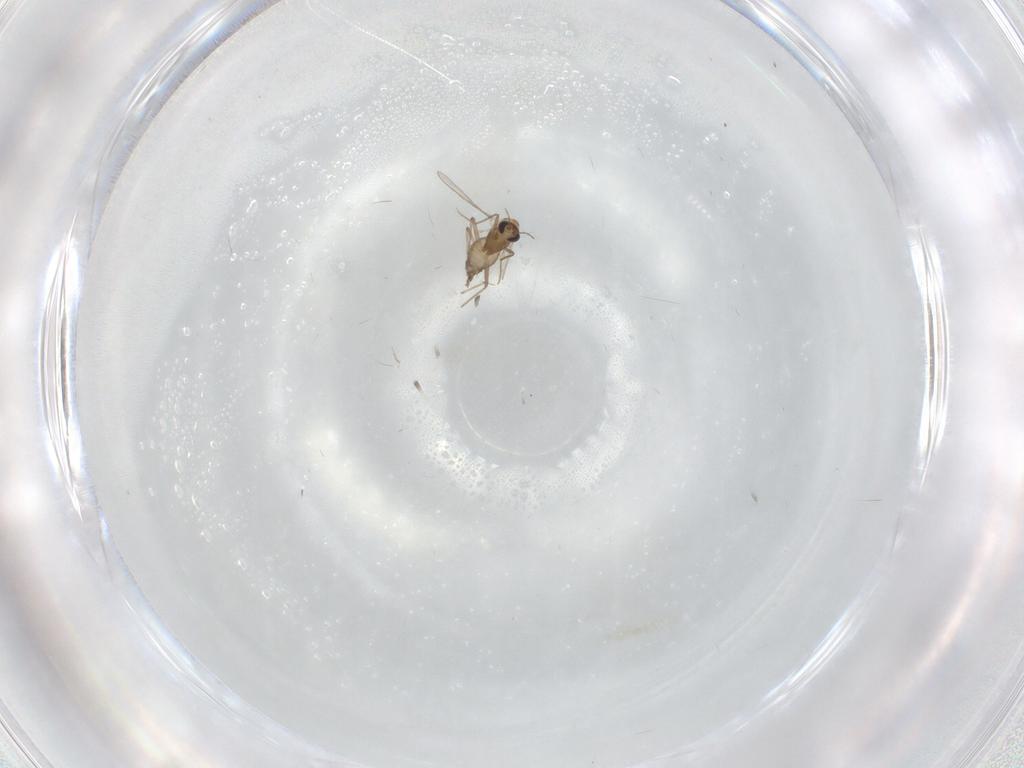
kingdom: Animalia
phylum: Arthropoda
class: Insecta
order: Diptera
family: Chironomidae
